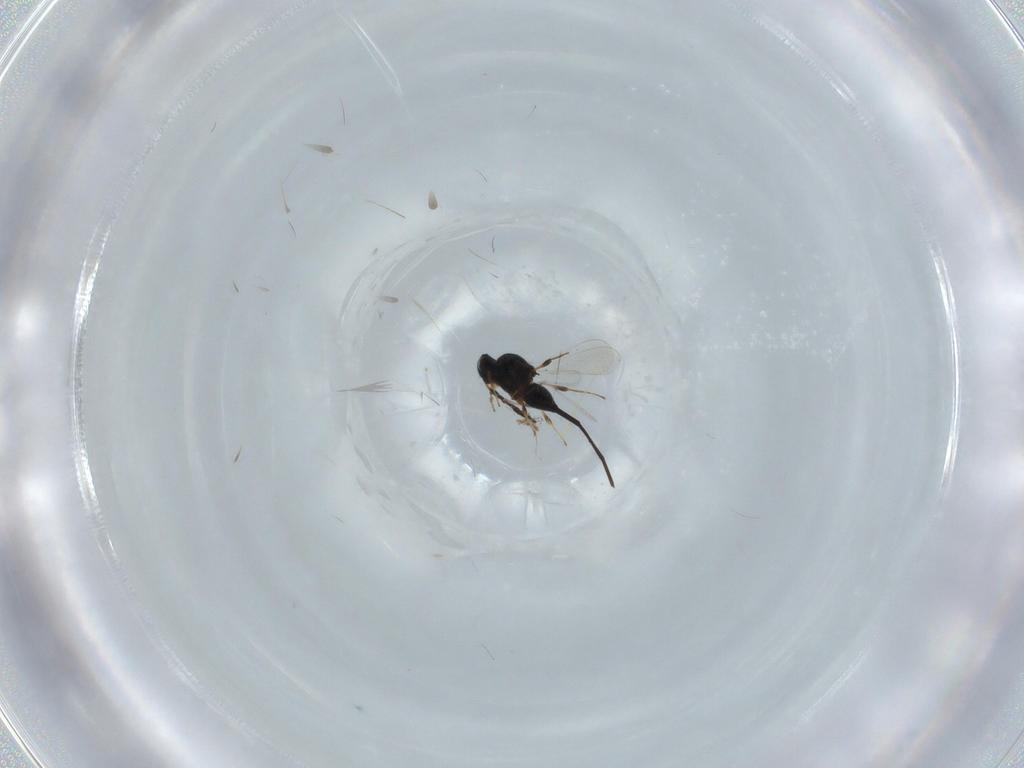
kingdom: Animalia
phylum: Arthropoda
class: Insecta
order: Hymenoptera
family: Platygastridae
